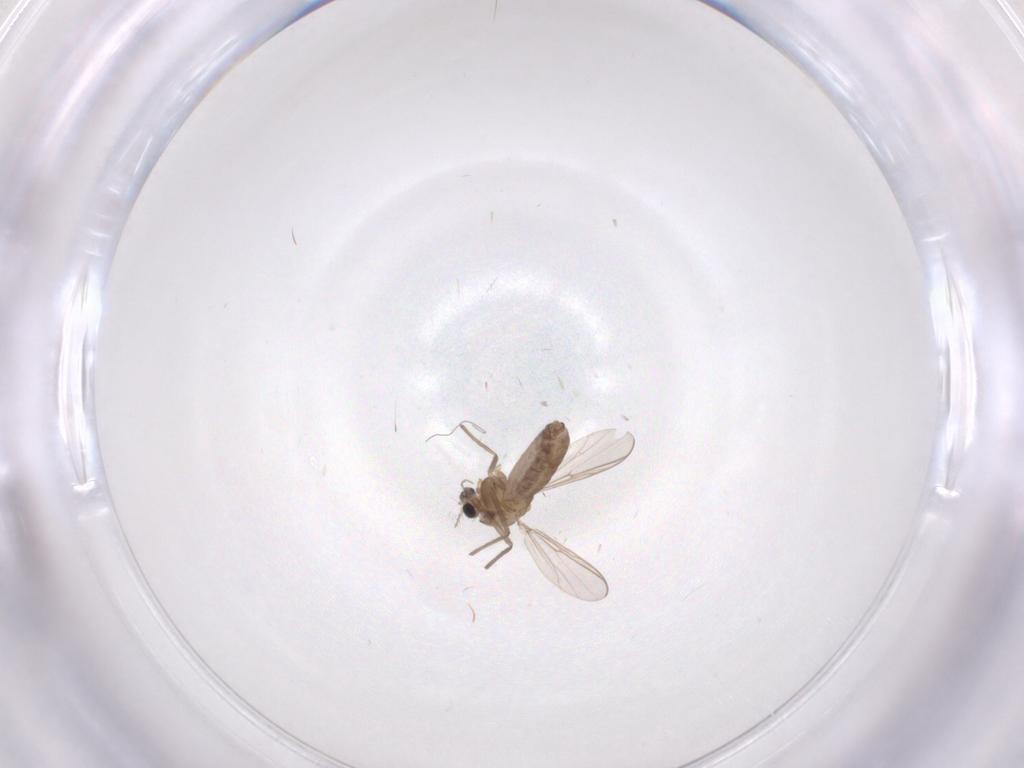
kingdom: Animalia
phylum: Arthropoda
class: Insecta
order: Diptera
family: Chironomidae
